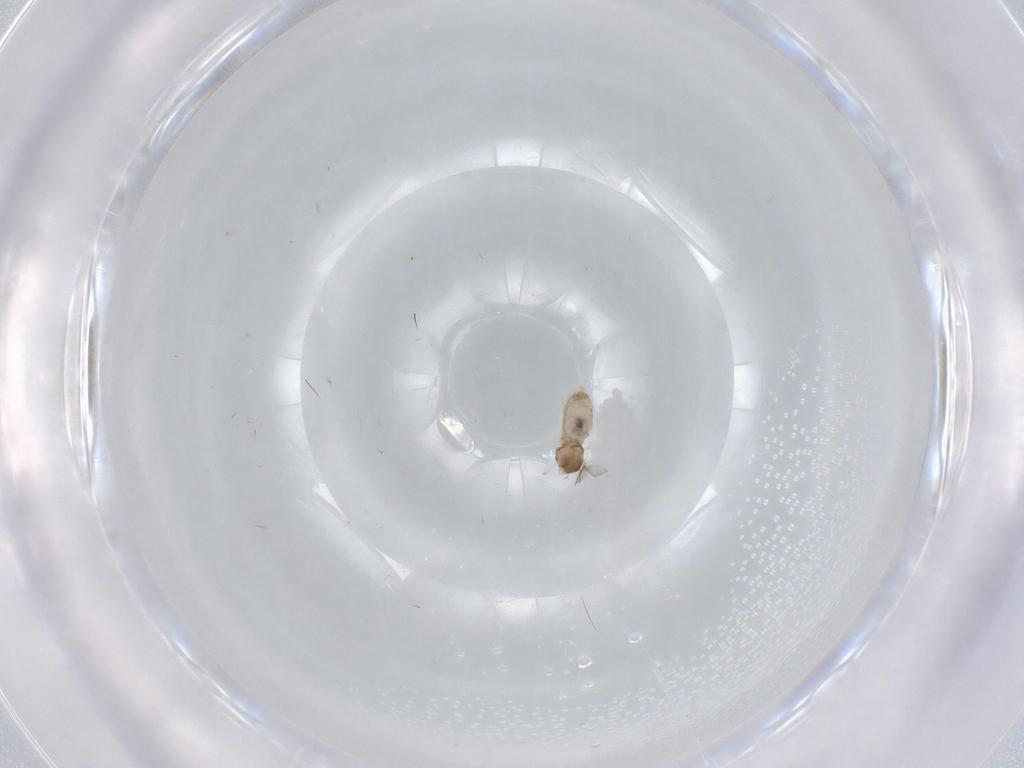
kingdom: Animalia
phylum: Arthropoda
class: Insecta
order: Diptera
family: Cecidomyiidae
